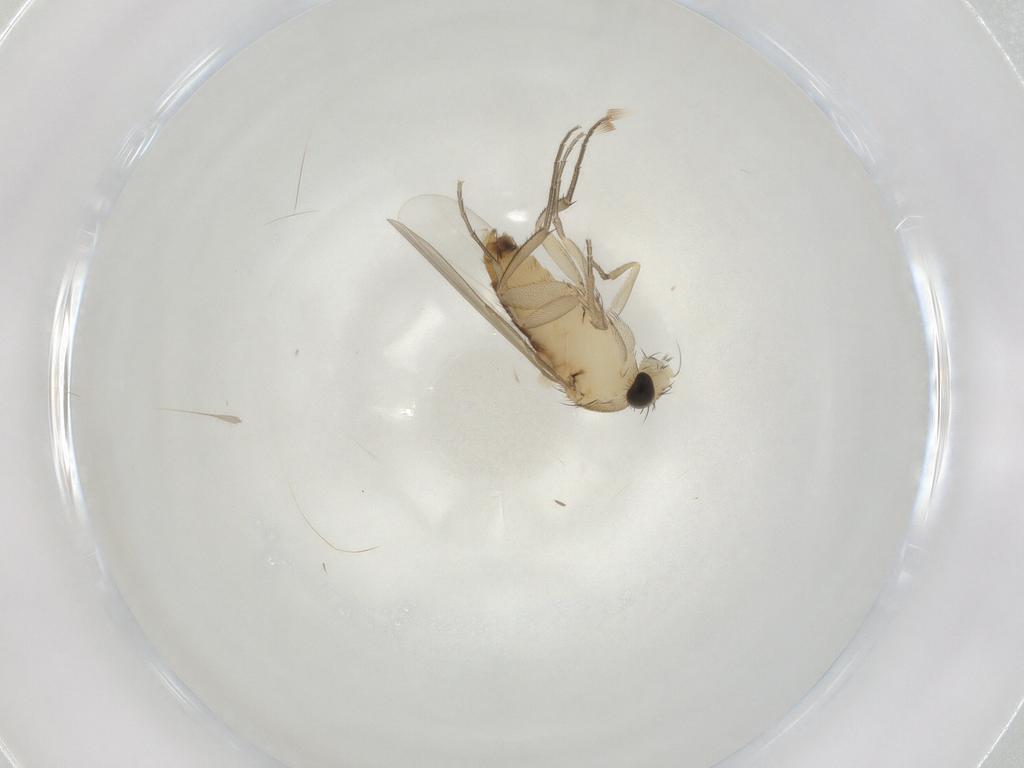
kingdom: Animalia
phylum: Arthropoda
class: Insecta
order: Diptera
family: Phoridae
